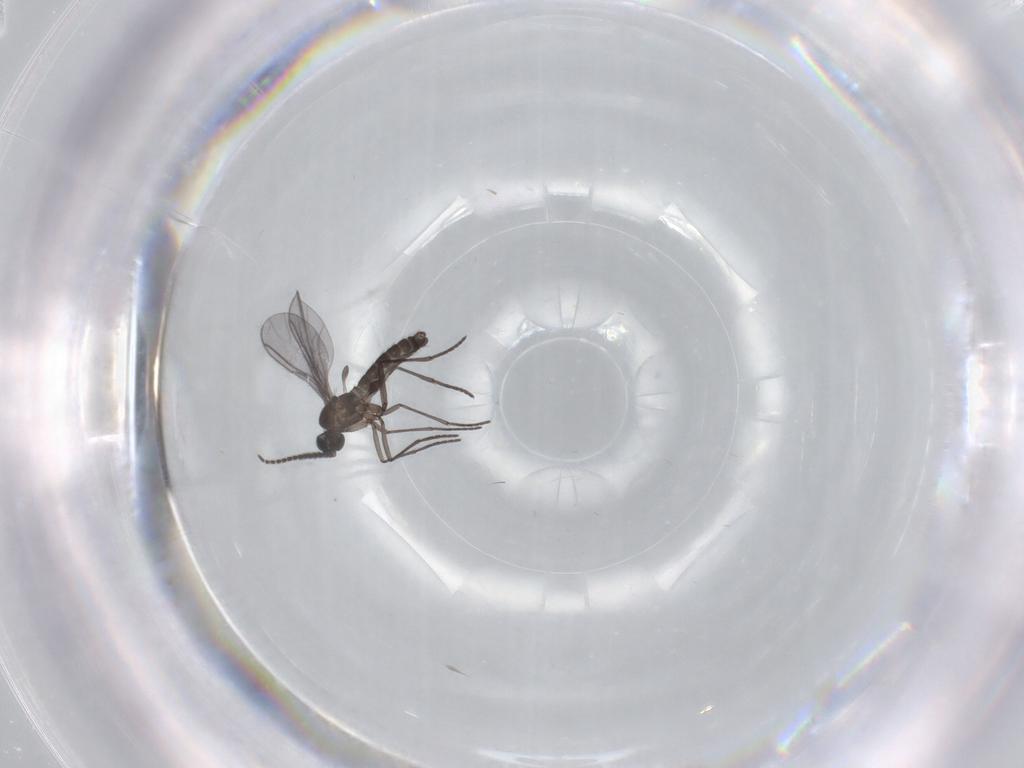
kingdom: Animalia
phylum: Arthropoda
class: Insecta
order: Diptera
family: Sciaridae
